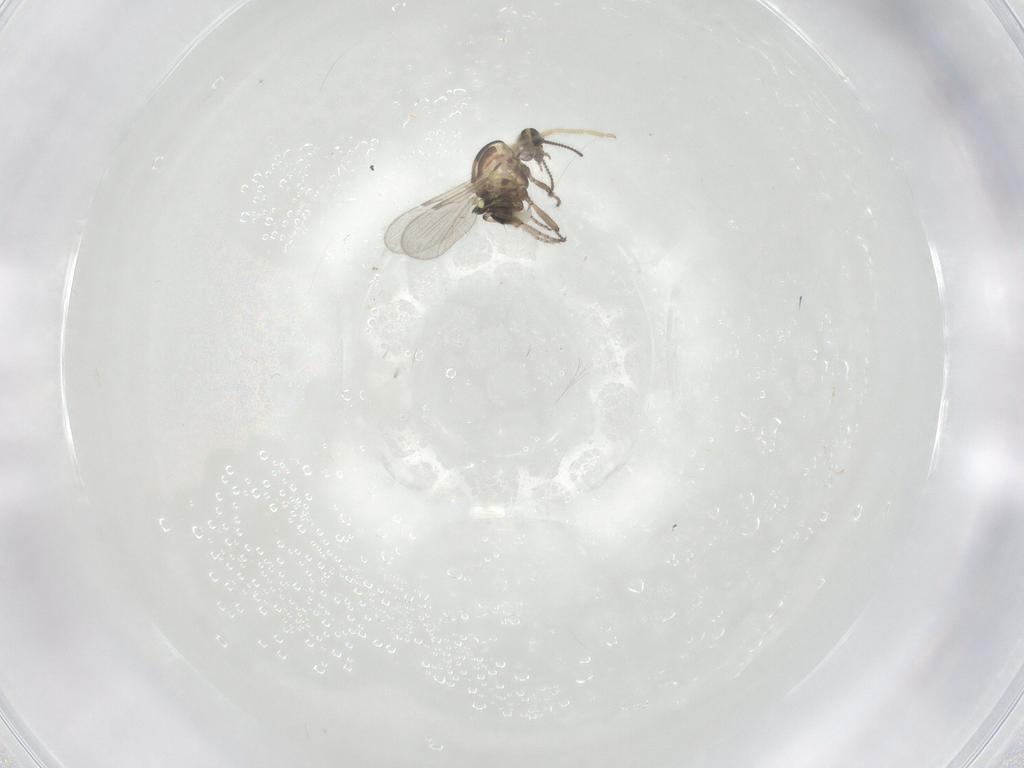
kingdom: Animalia
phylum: Arthropoda
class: Insecta
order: Diptera
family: Ceratopogonidae
